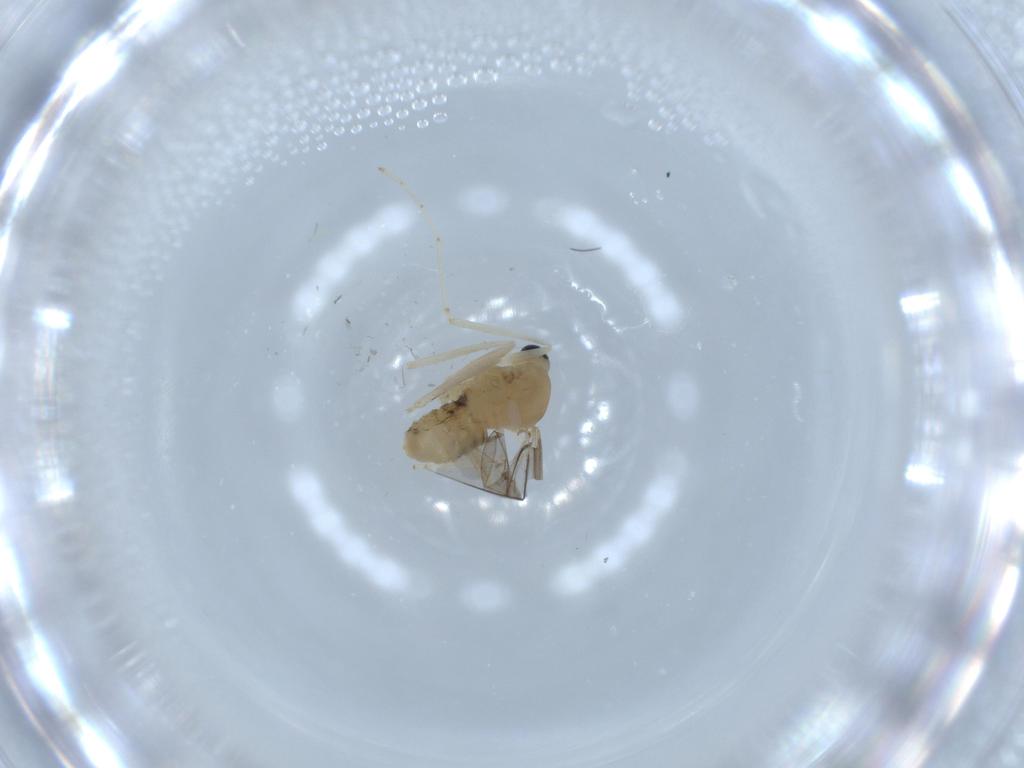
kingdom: Animalia
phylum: Arthropoda
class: Insecta
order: Diptera
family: Cecidomyiidae
